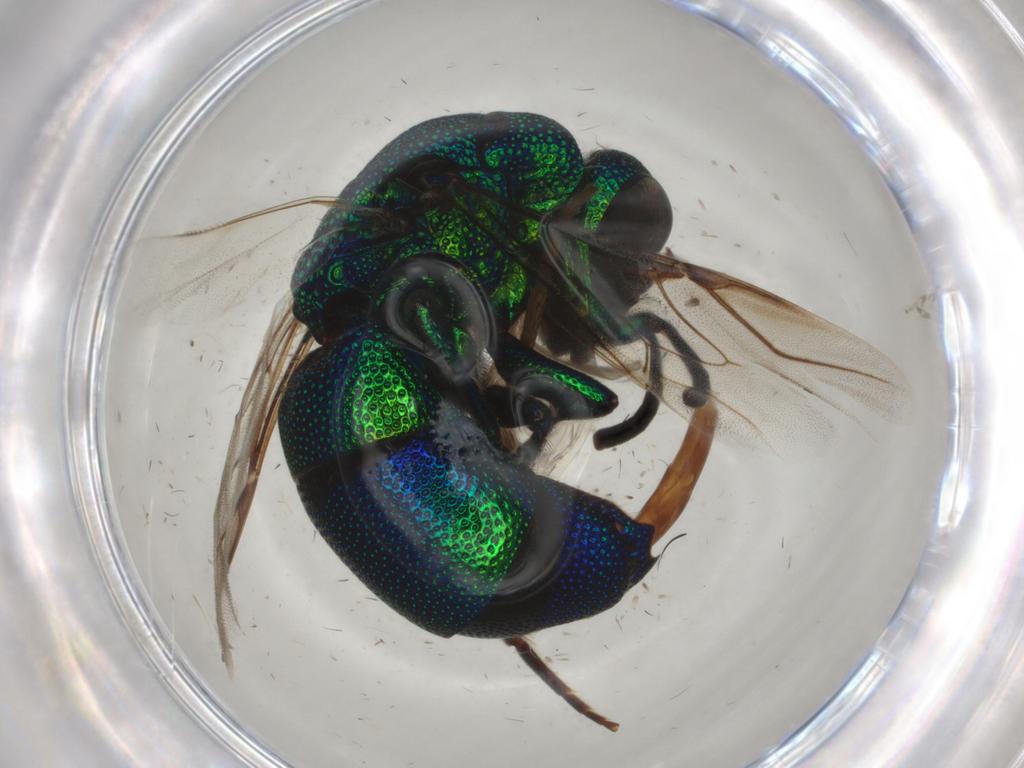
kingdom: Animalia
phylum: Arthropoda
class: Insecta
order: Hymenoptera
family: Chrysididae
